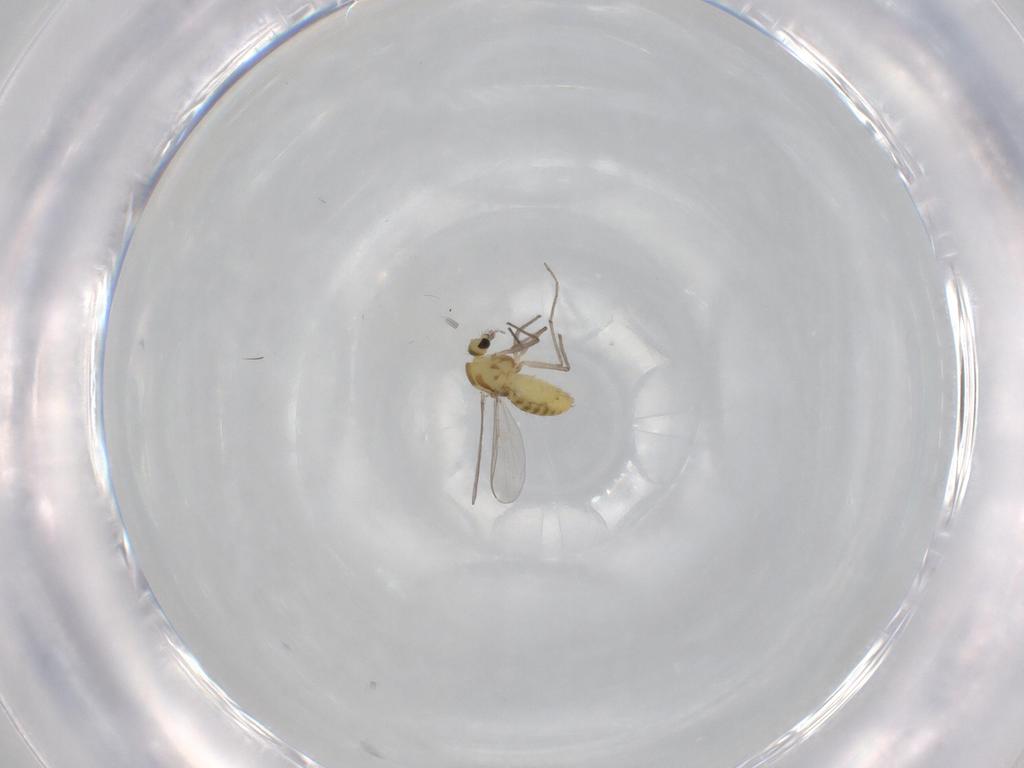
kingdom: Animalia
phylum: Arthropoda
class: Insecta
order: Diptera
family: Chironomidae
